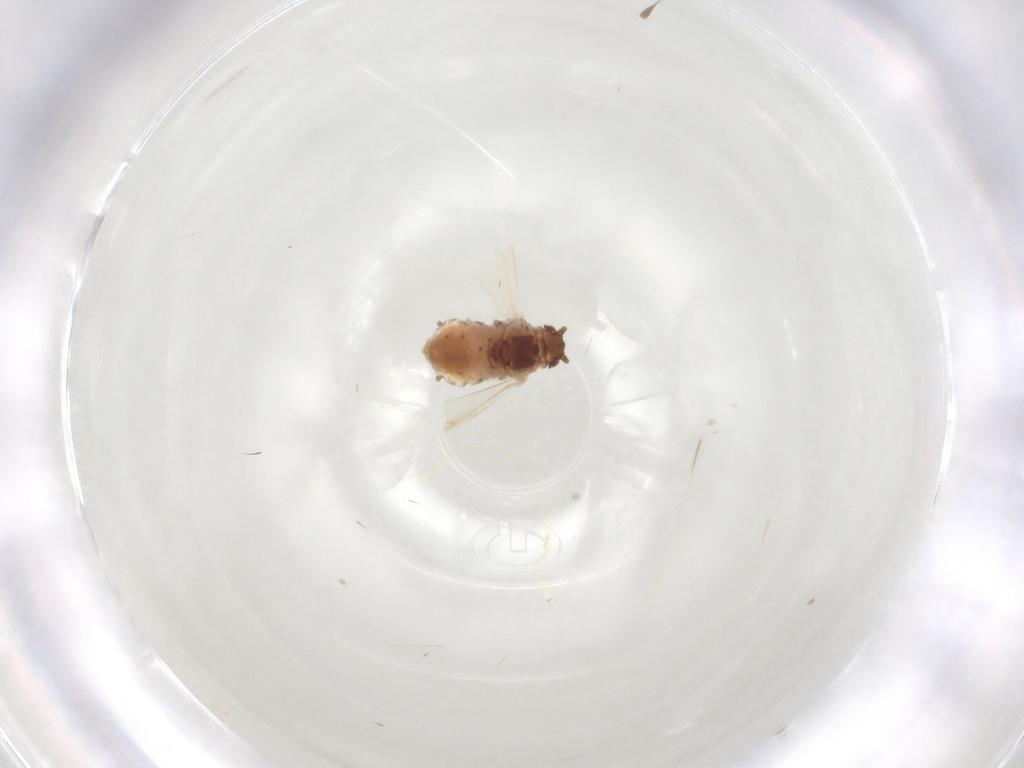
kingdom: Animalia
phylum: Arthropoda
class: Insecta
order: Hemiptera
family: Aphididae
